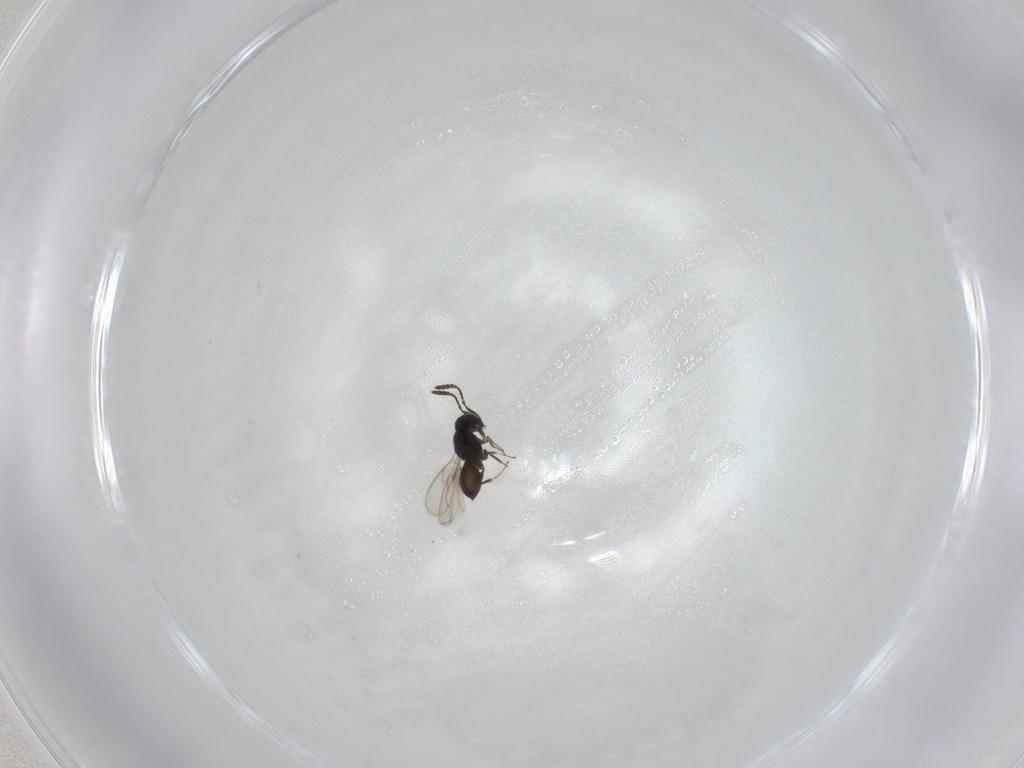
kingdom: Animalia
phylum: Arthropoda
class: Insecta
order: Hymenoptera
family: Scelionidae
